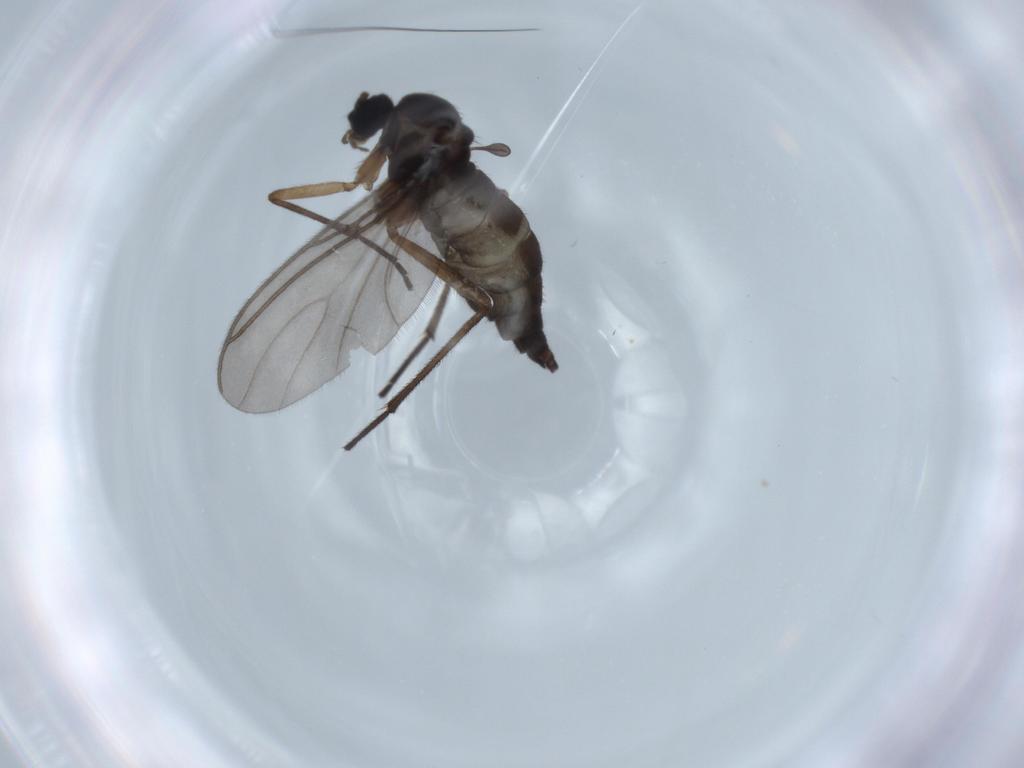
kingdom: Animalia
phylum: Arthropoda
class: Insecta
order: Diptera
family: Sciaridae
